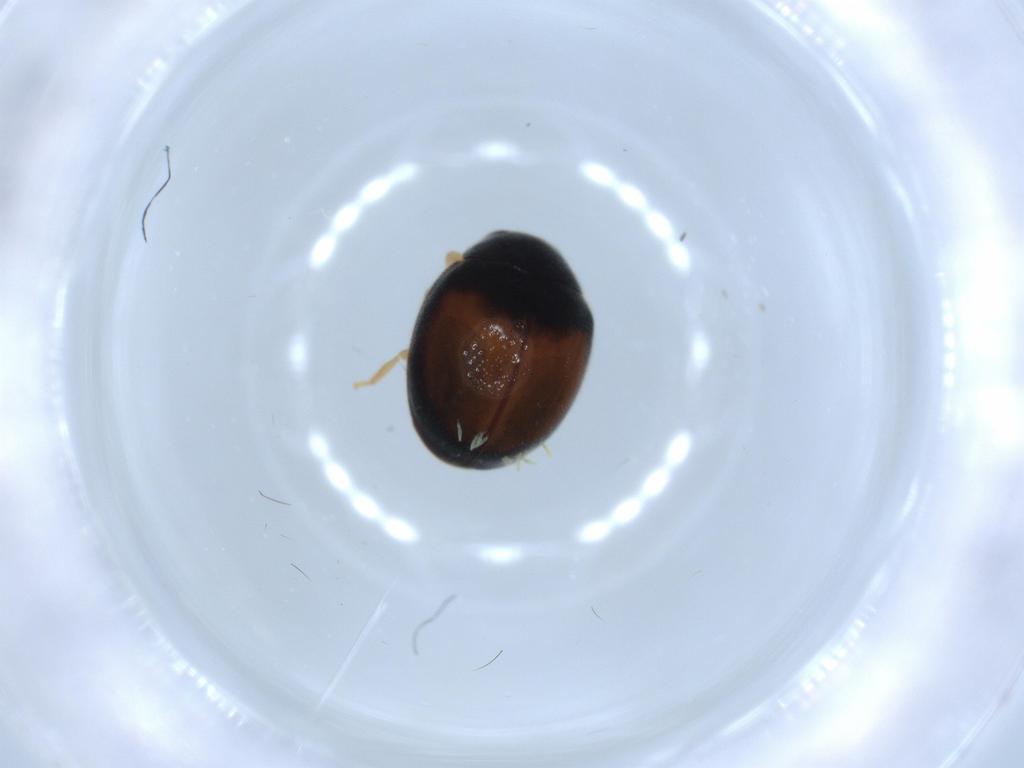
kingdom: Animalia
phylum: Arthropoda
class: Insecta
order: Coleoptera
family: Coccinellidae
